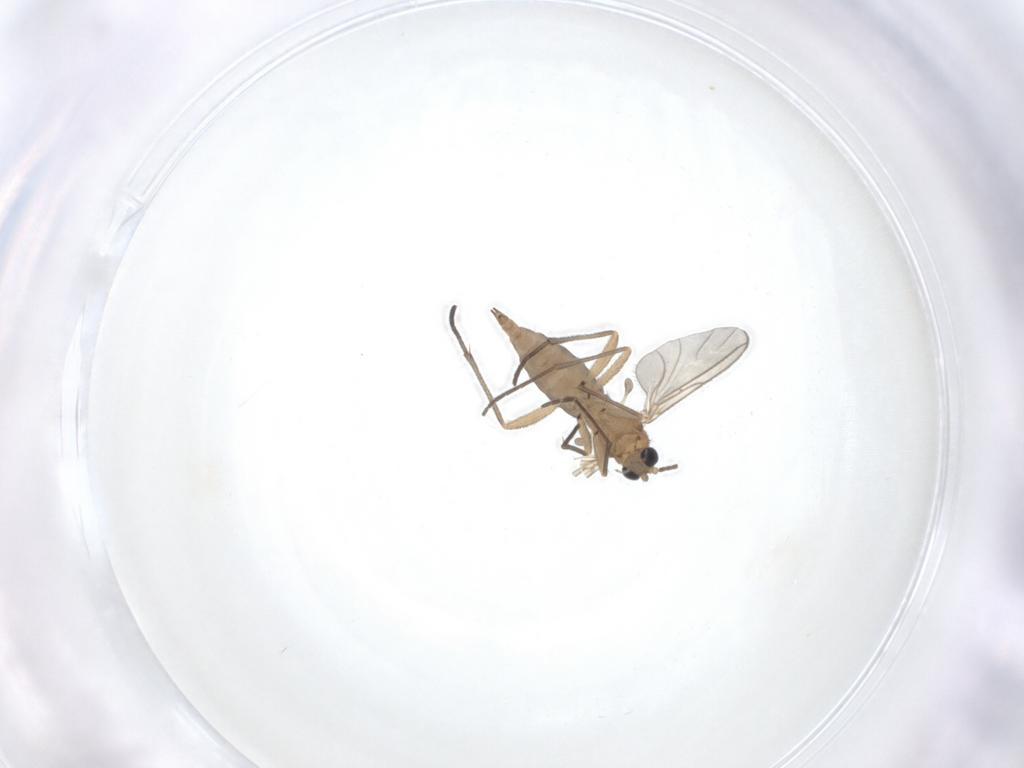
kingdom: Animalia
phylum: Arthropoda
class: Insecta
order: Diptera
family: Sciaridae
